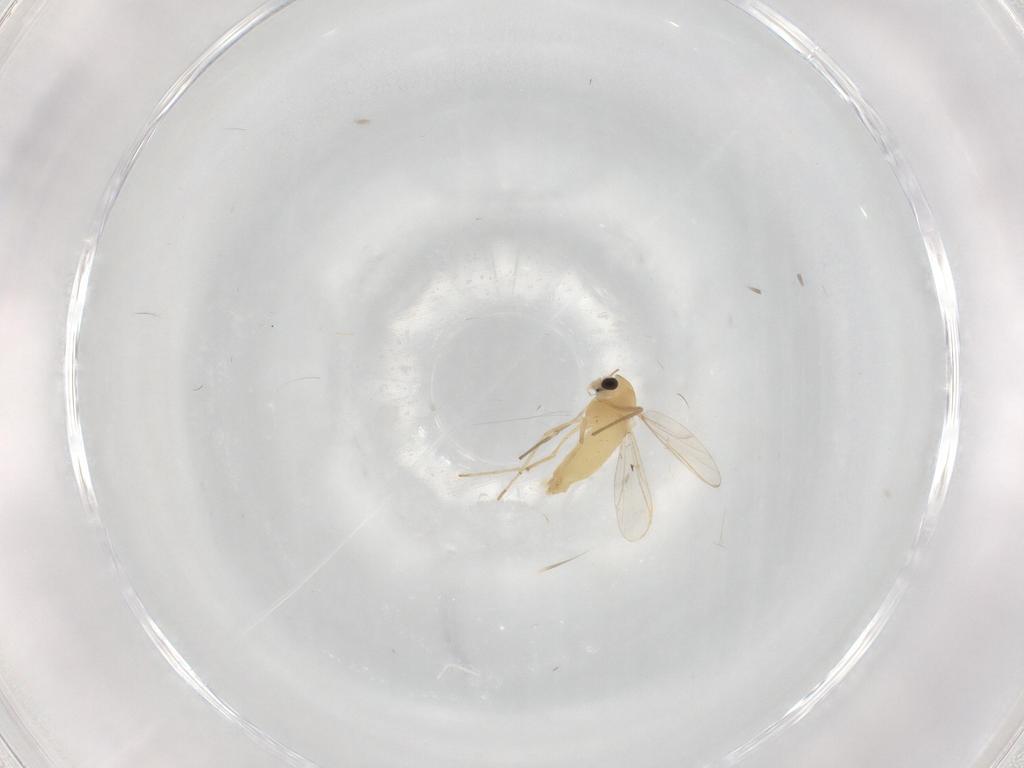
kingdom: Animalia
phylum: Arthropoda
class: Insecta
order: Diptera
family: Chironomidae
